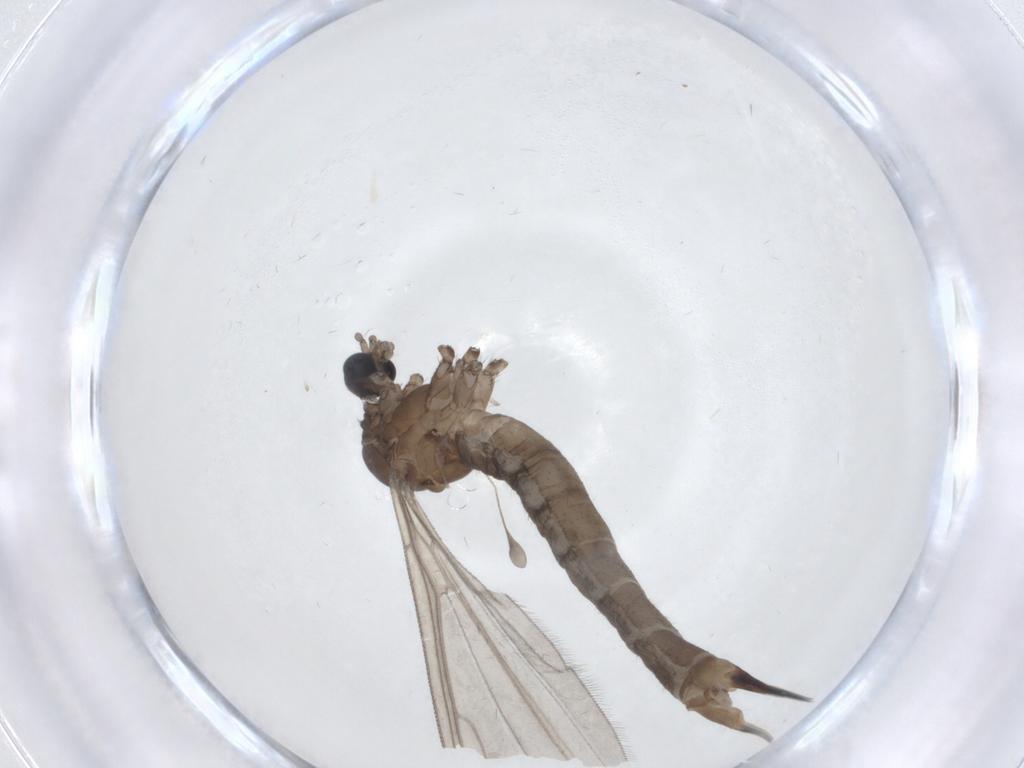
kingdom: Animalia
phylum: Arthropoda
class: Insecta
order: Diptera
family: Limoniidae
